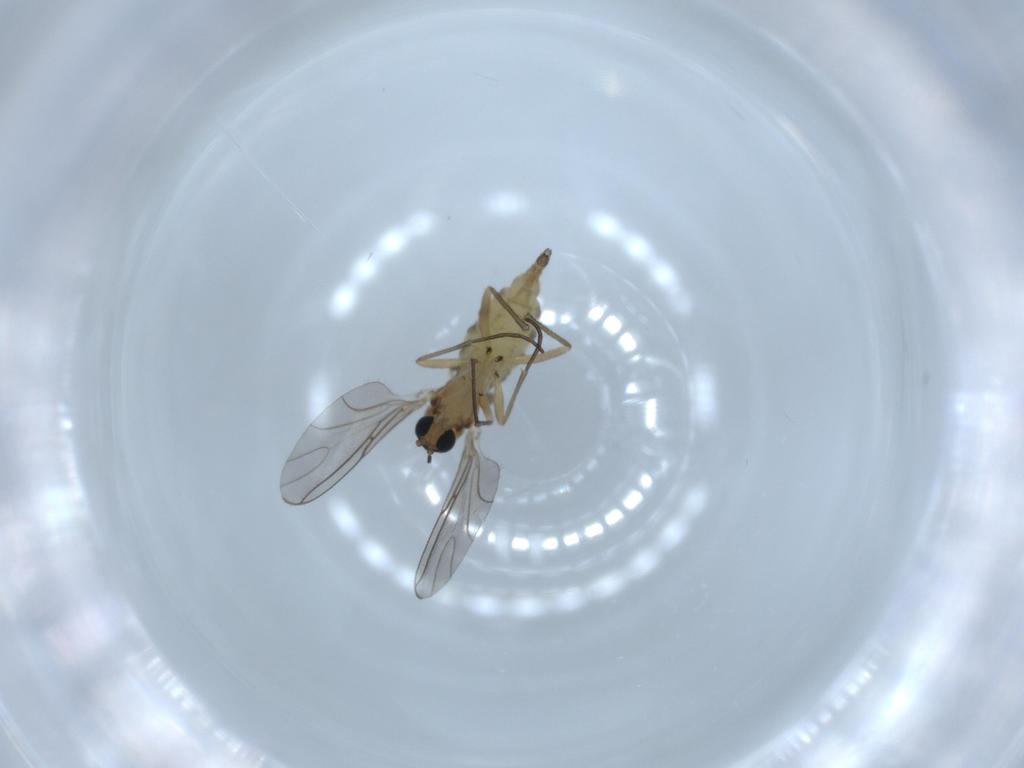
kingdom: Animalia
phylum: Arthropoda
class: Insecta
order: Diptera
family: Sciaridae
